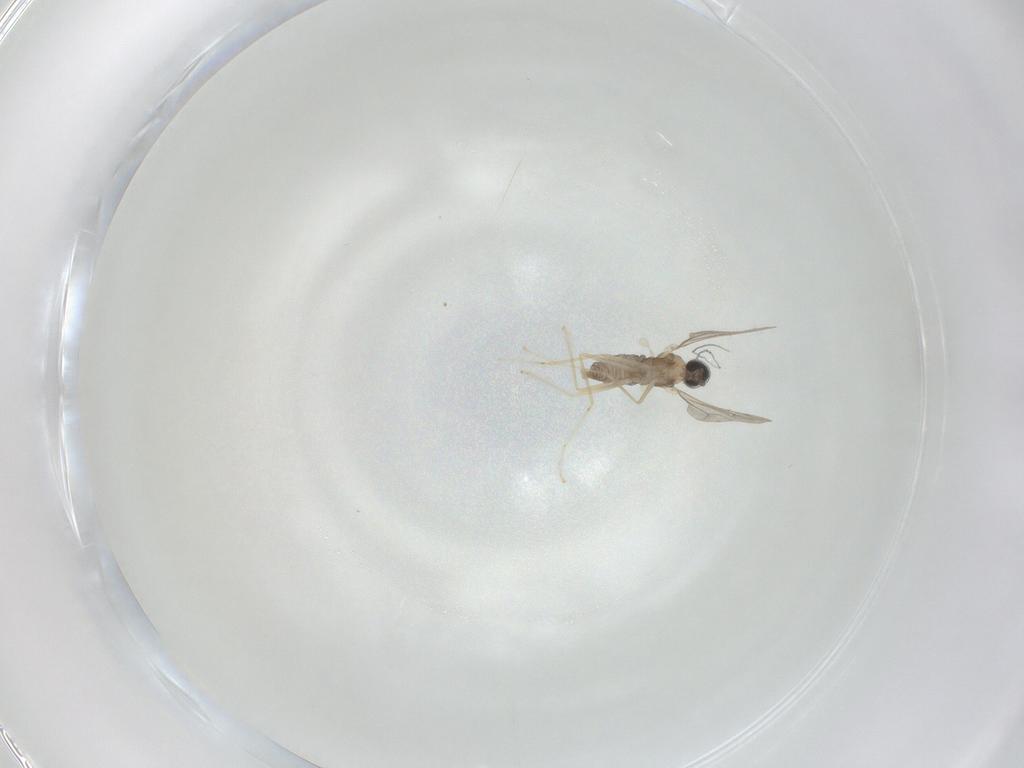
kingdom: Animalia
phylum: Arthropoda
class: Insecta
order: Diptera
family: Cecidomyiidae
